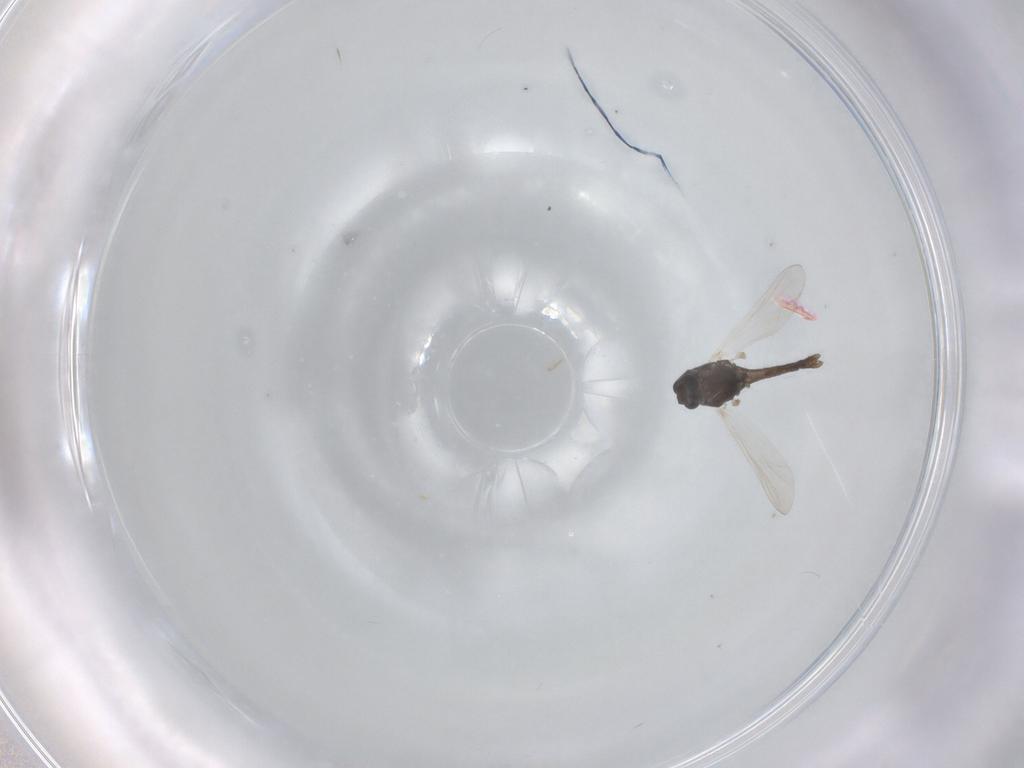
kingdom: Animalia
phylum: Arthropoda
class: Insecta
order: Diptera
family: Chironomidae
